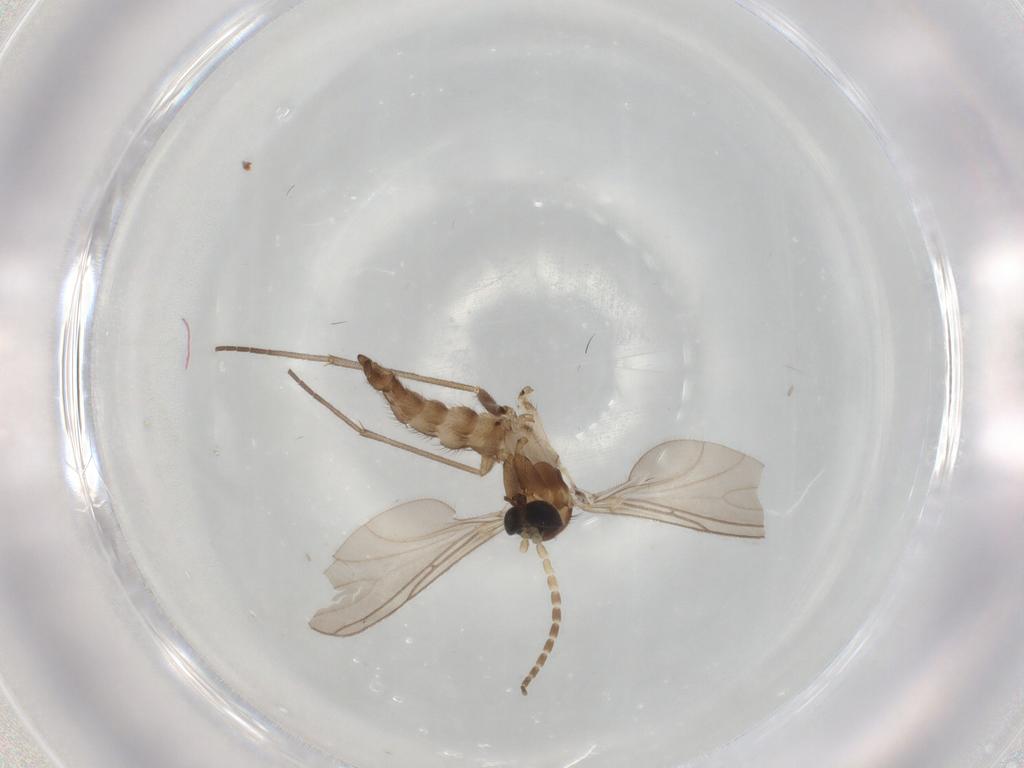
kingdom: Animalia
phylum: Arthropoda
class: Insecta
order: Diptera
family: Sciaridae
